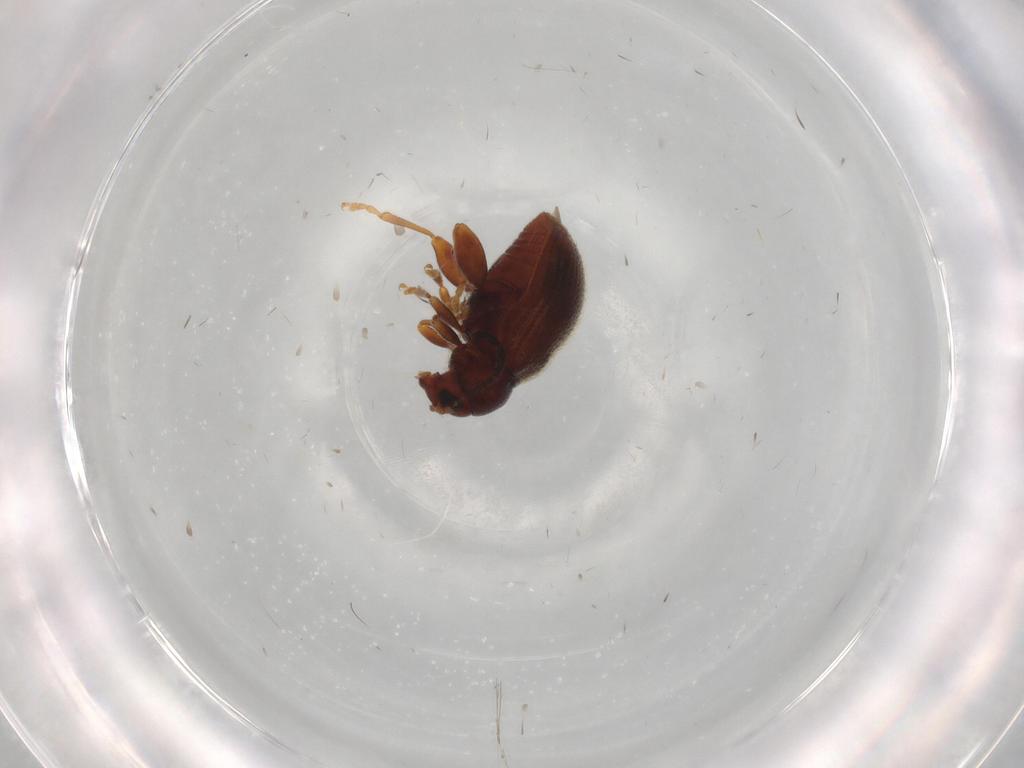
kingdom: Animalia
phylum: Arthropoda
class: Insecta
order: Coleoptera
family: Chrysomelidae
